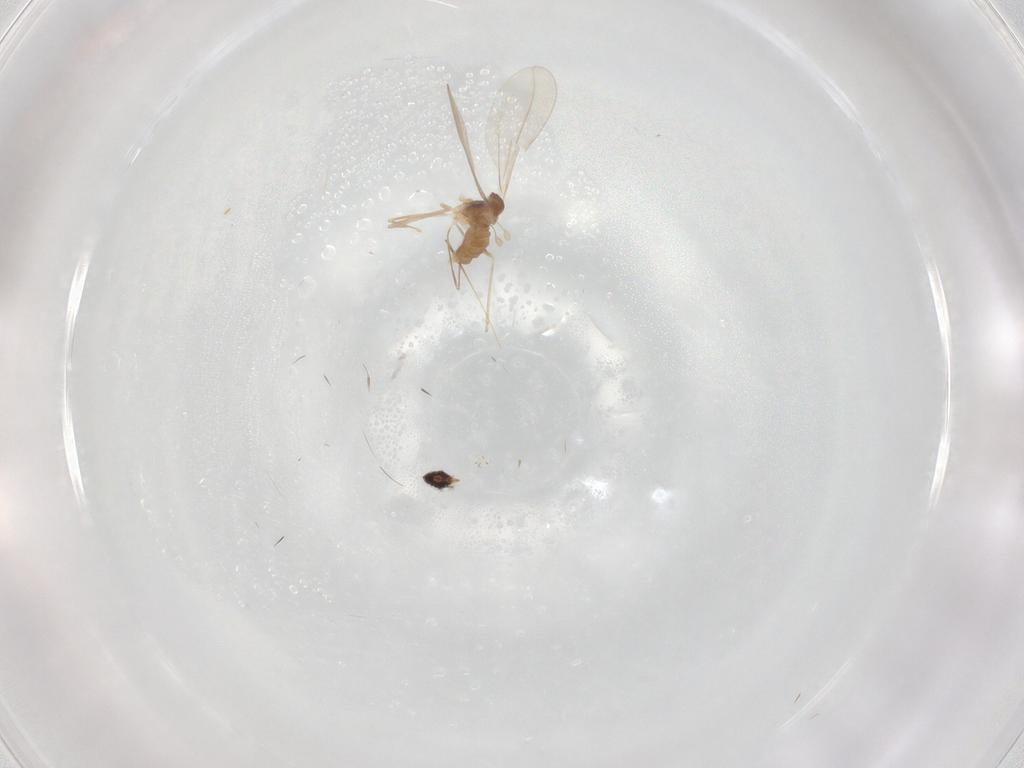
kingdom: Animalia
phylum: Arthropoda
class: Insecta
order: Diptera
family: Cecidomyiidae
